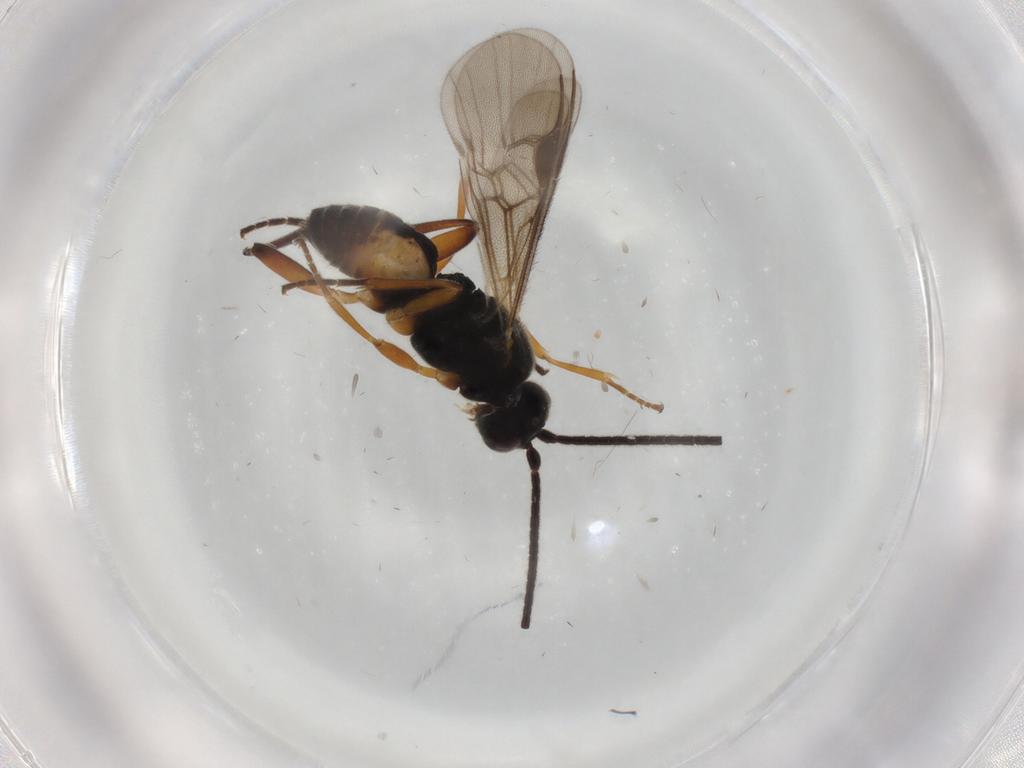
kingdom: Animalia
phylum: Arthropoda
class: Insecta
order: Hymenoptera
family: Braconidae
